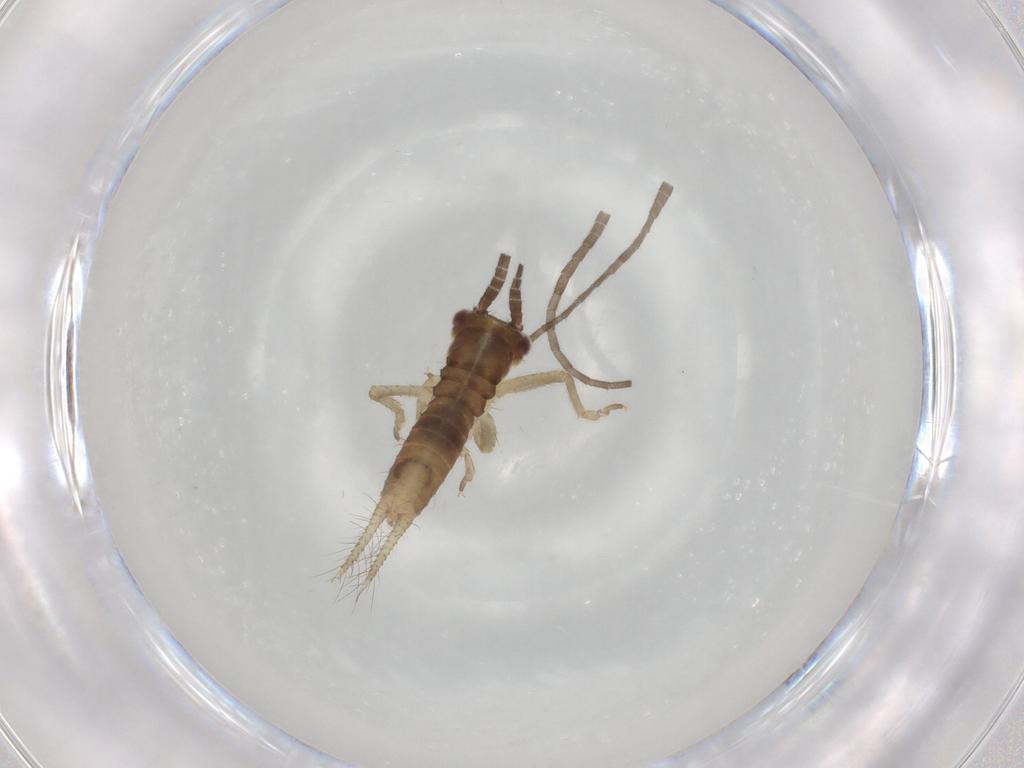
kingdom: Animalia
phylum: Arthropoda
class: Insecta
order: Orthoptera
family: Gryllidae
